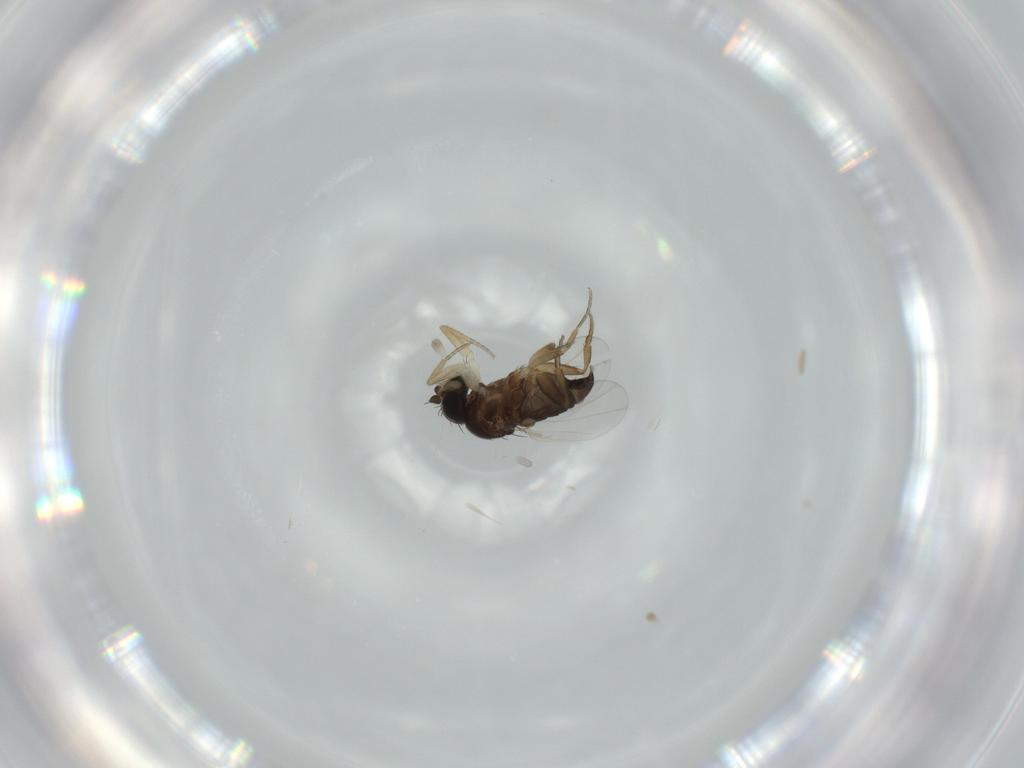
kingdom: Animalia
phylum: Arthropoda
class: Insecta
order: Diptera
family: Phoridae
